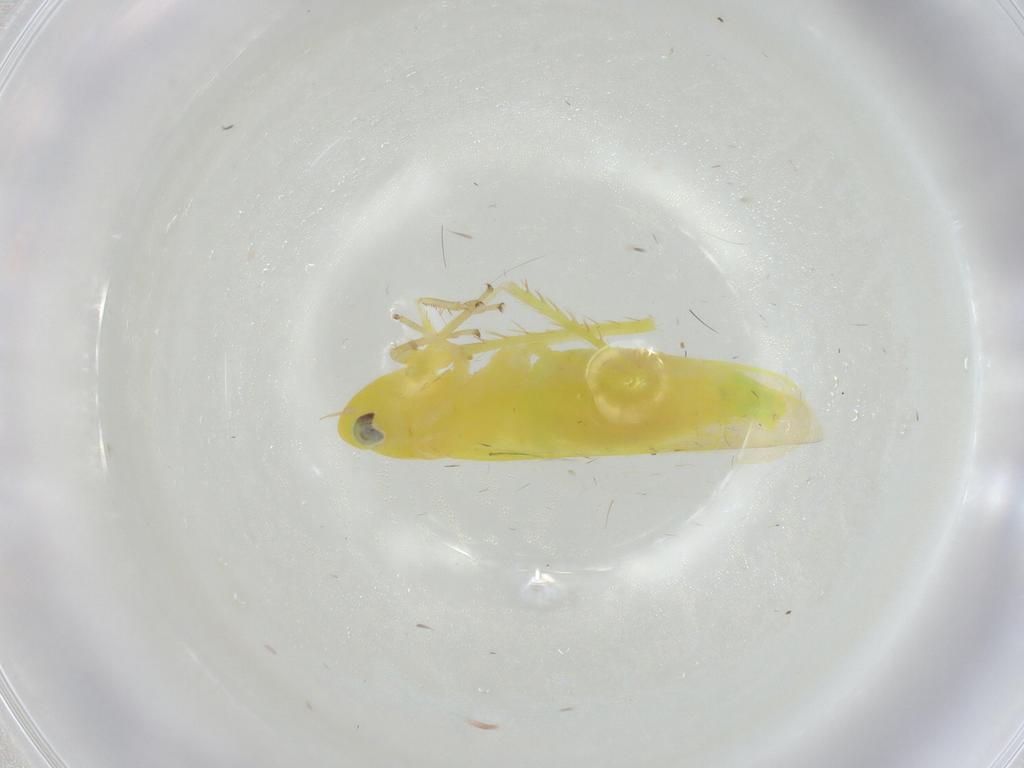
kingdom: Animalia
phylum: Arthropoda
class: Insecta
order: Hemiptera
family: Cicadellidae
